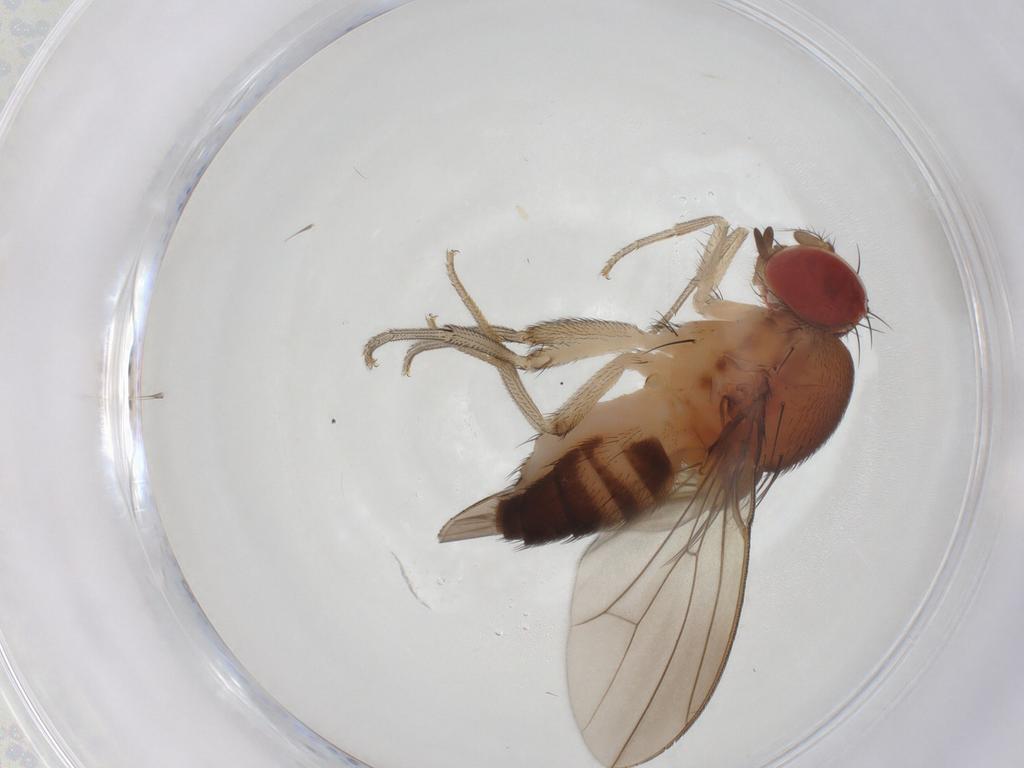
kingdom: Animalia
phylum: Arthropoda
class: Insecta
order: Diptera
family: Drosophilidae
